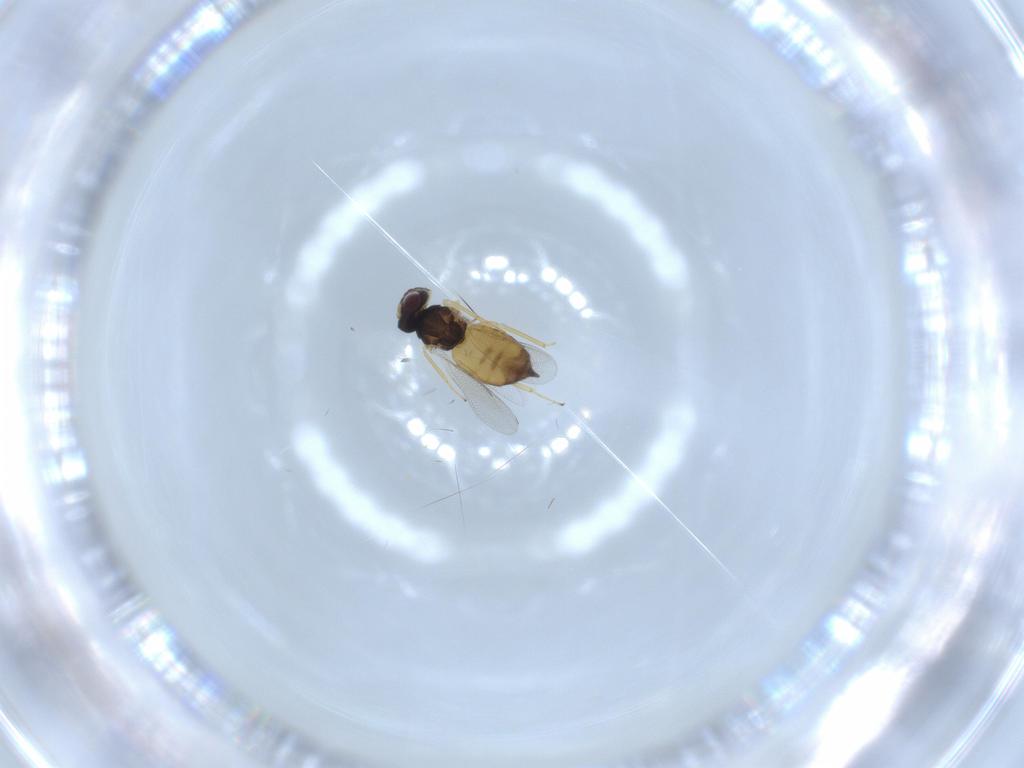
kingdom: Animalia
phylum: Arthropoda
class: Insecta
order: Hymenoptera
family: Eulophidae
